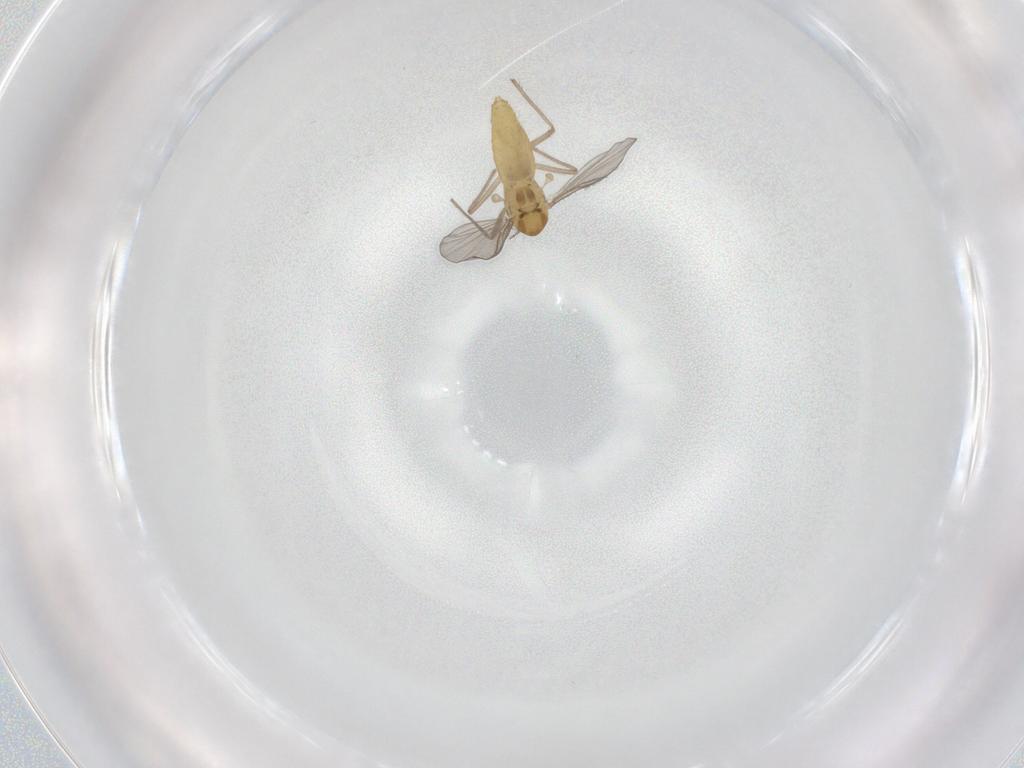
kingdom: Animalia
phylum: Arthropoda
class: Insecta
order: Diptera
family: Chironomidae
